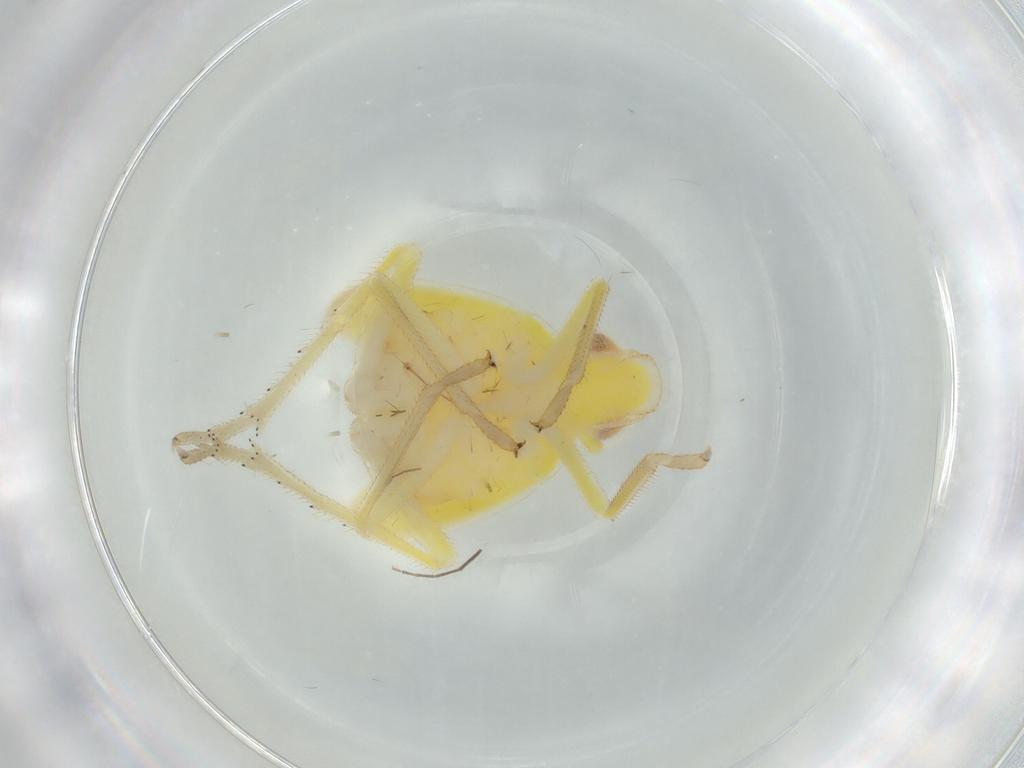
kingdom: Animalia
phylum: Arthropoda
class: Insecta
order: Hemiptera
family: Tropiduchidae
